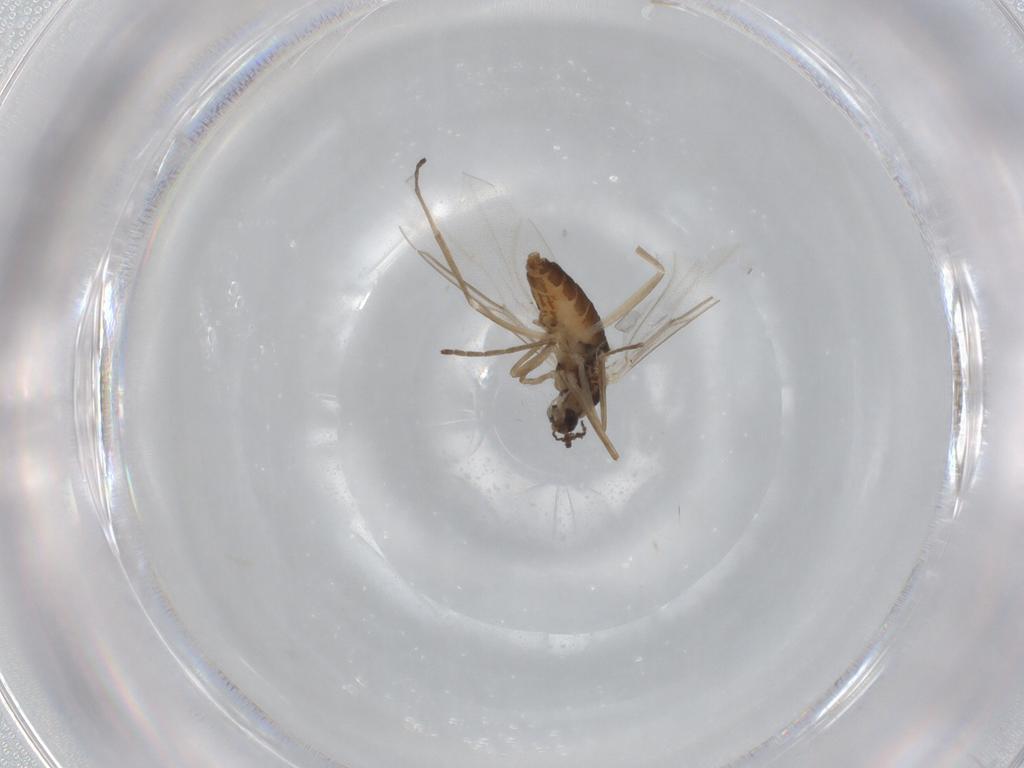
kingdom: Animalia
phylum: Arthropoda
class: Insecta
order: Diptera
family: Cecidomyiidae
